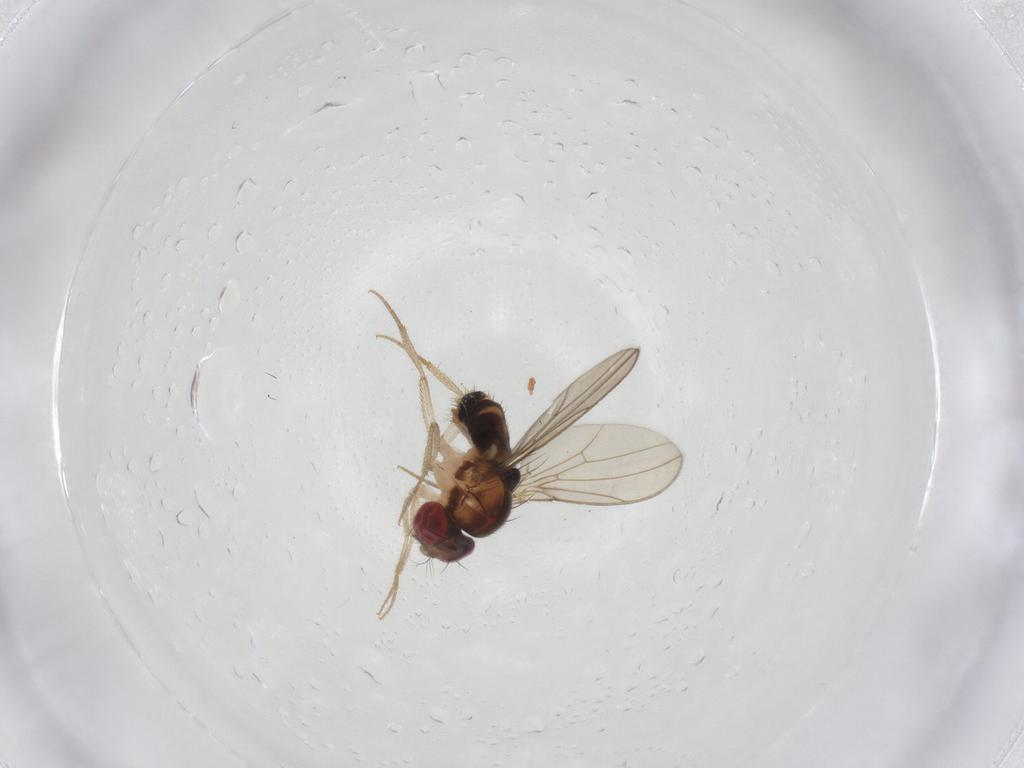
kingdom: Animalia
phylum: Arthropoda
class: Insecta
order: Diptera
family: Drosophilidae
